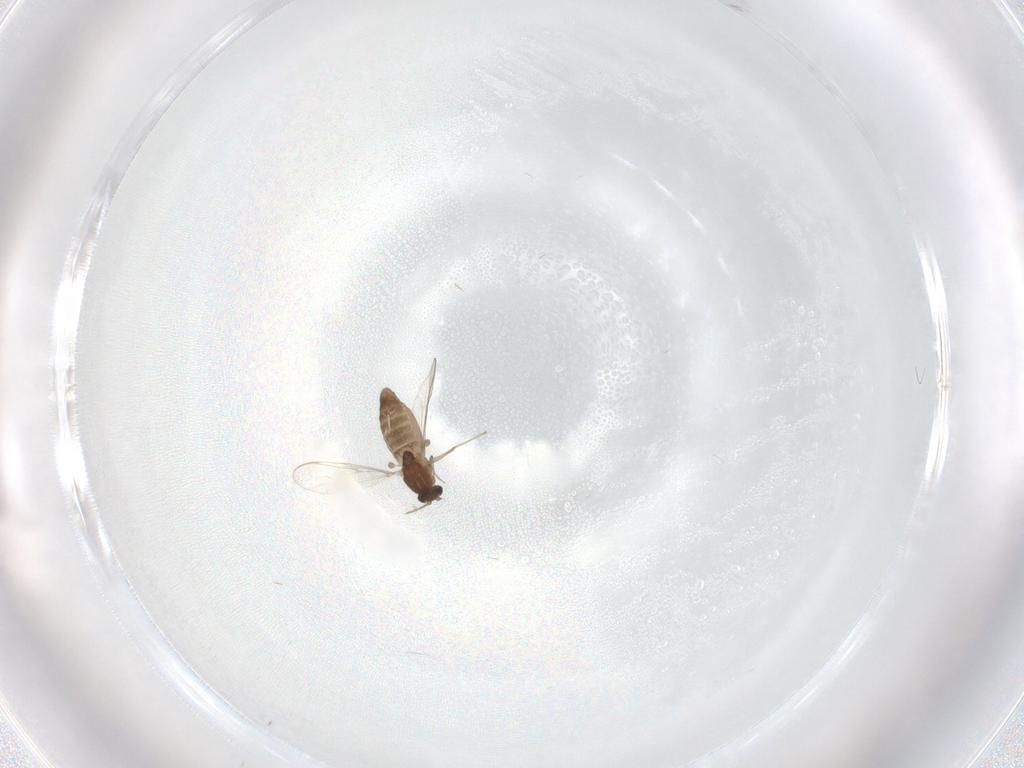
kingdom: Animalia
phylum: Arthropoda
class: Insecta
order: Diptera
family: Chironomidae
